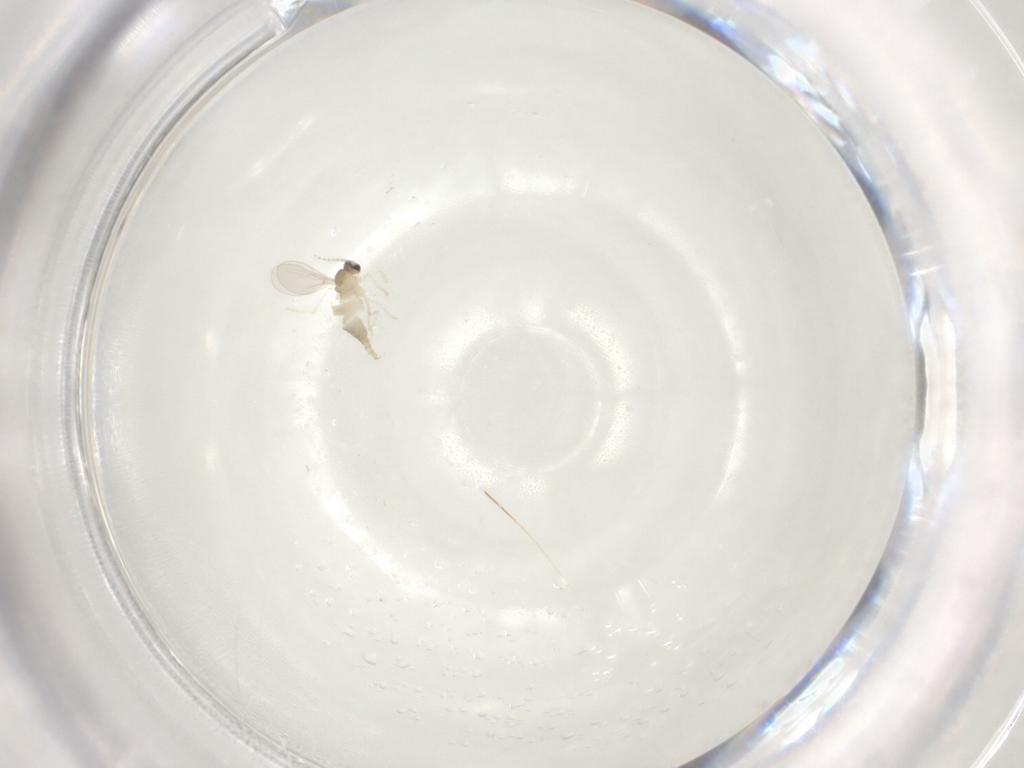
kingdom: Animalia
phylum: Arthropoda
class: Insecta
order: Diptera
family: Cecidomyiidae
